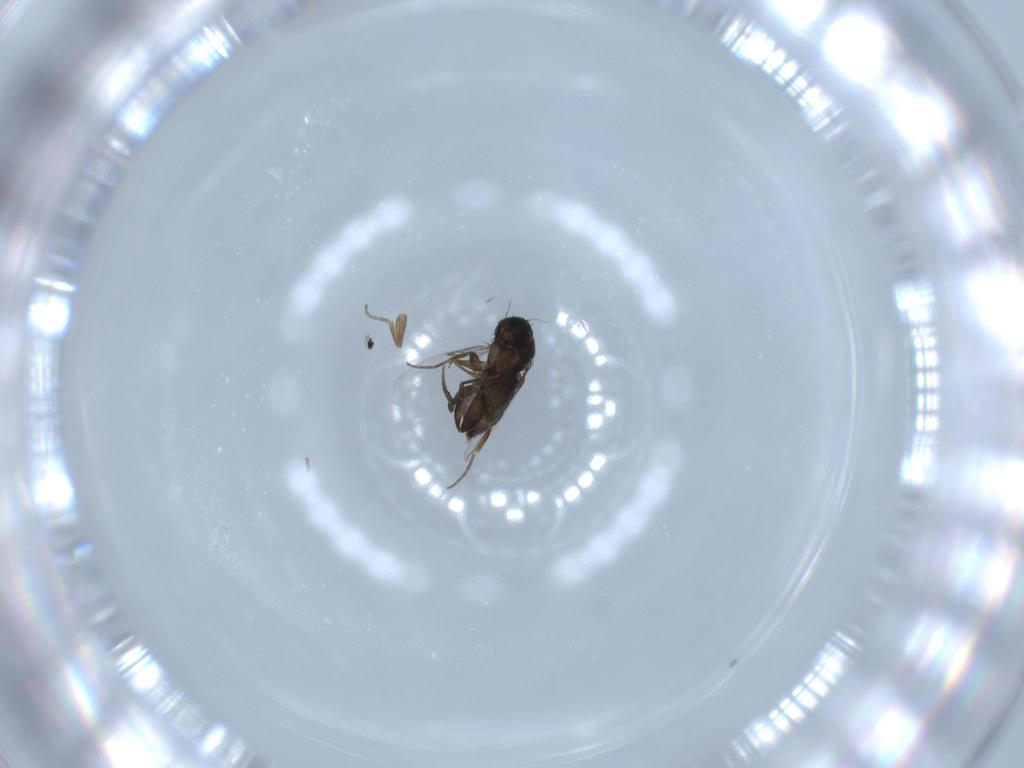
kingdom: Animalia
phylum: Arthropoda
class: Insecta
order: Diptera
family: Phoridae
